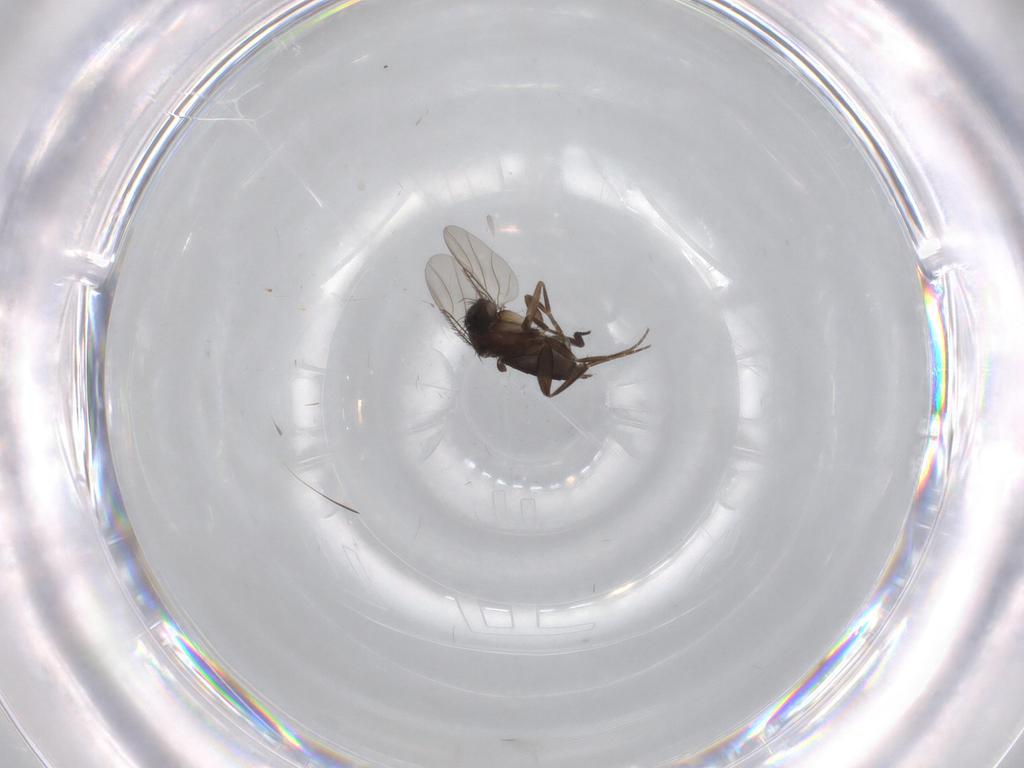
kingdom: Animalia
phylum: Arthropoda
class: Insecta
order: Diptera
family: Phoridae
